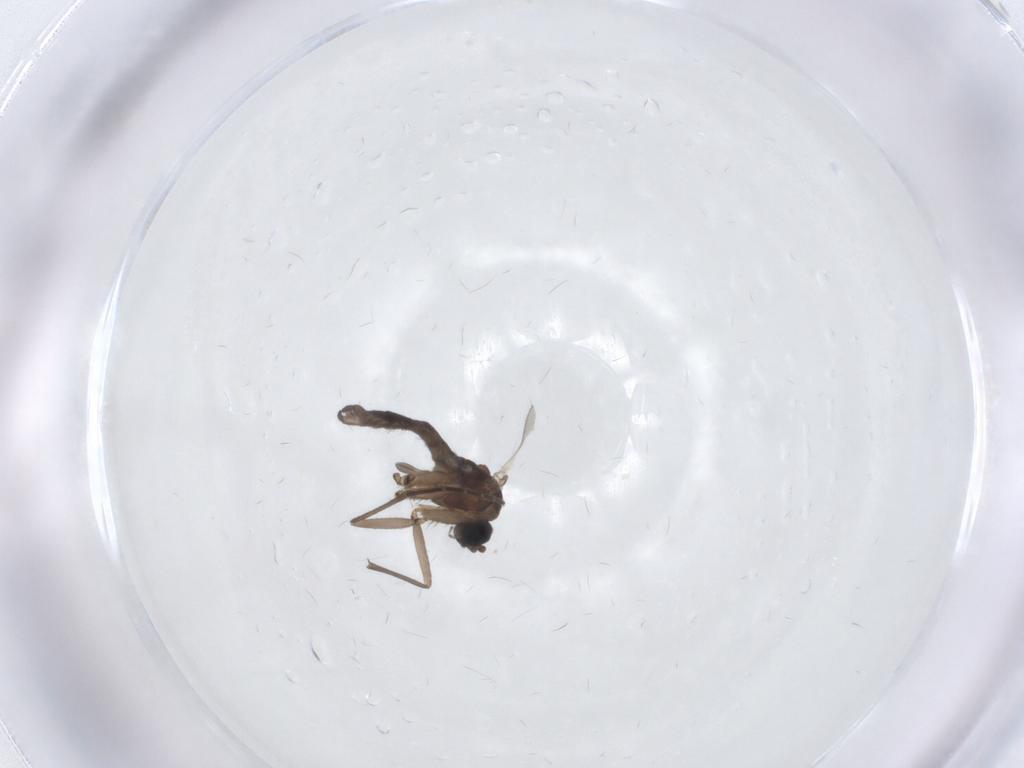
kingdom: Animalia
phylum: Arthropoda
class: Insecta
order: Diptera
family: Sciaridae
